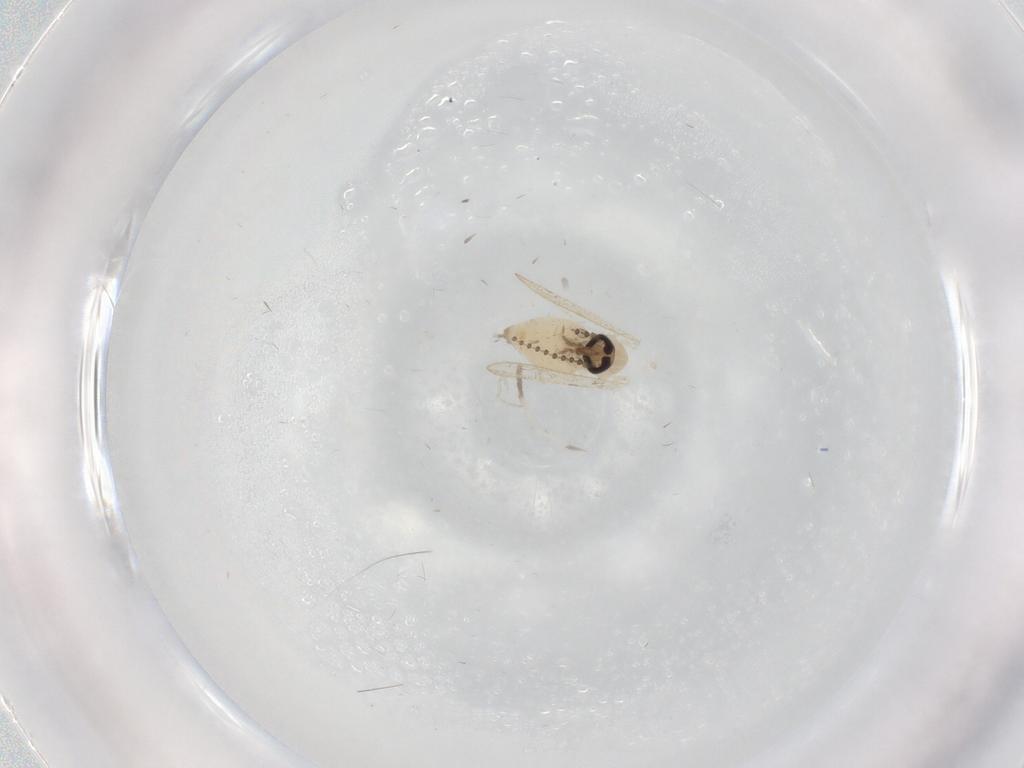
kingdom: Animalia
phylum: Arthropoda
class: Insecta
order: Diptera
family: Psychodidae
